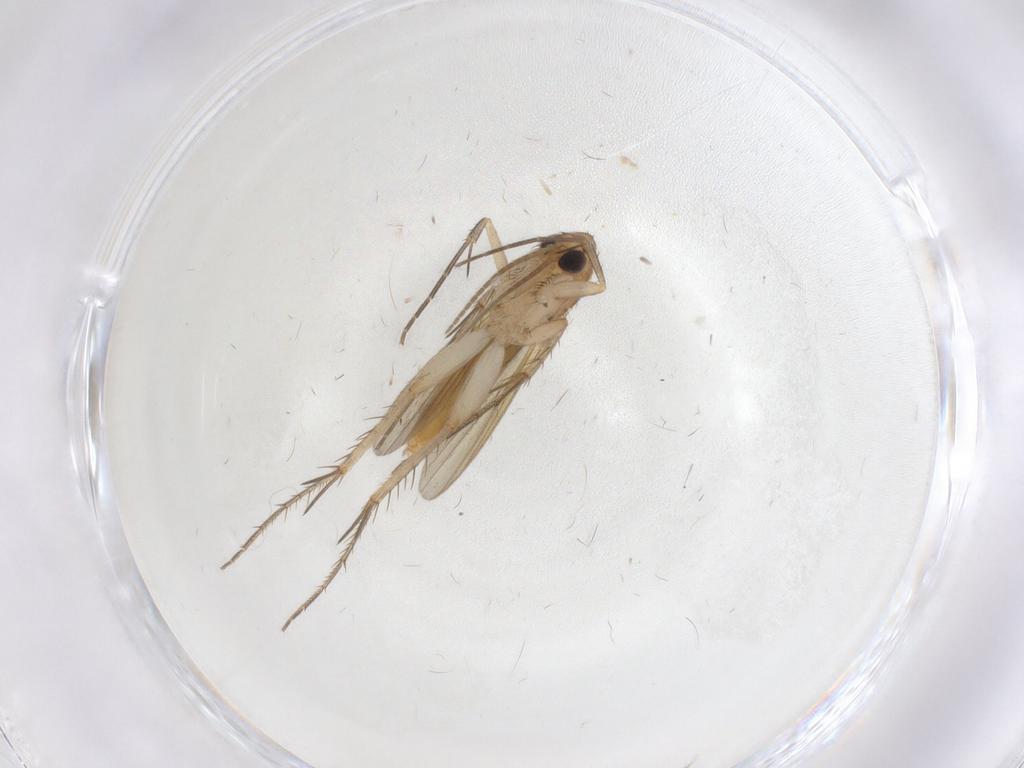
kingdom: Animalia
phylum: Arthropoda
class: Insecta
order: Diptera
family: Mycetophilidae
